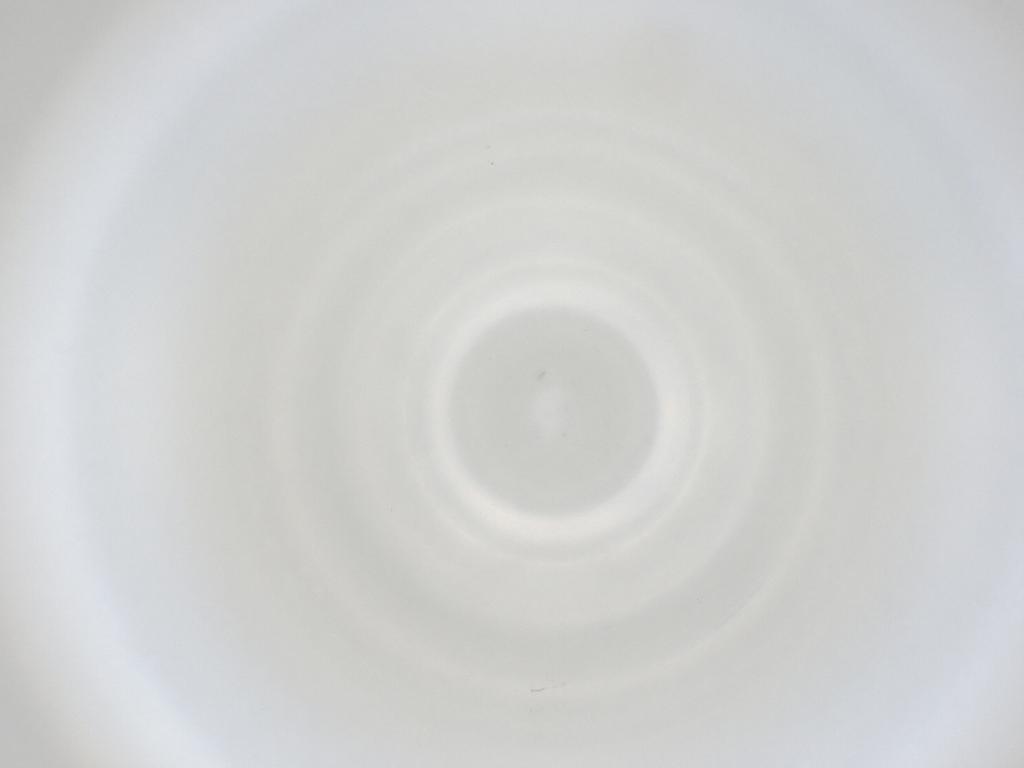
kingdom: Animalia
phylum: Arthropoda
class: Insecta
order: Diptera
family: Cecidomyiidae
